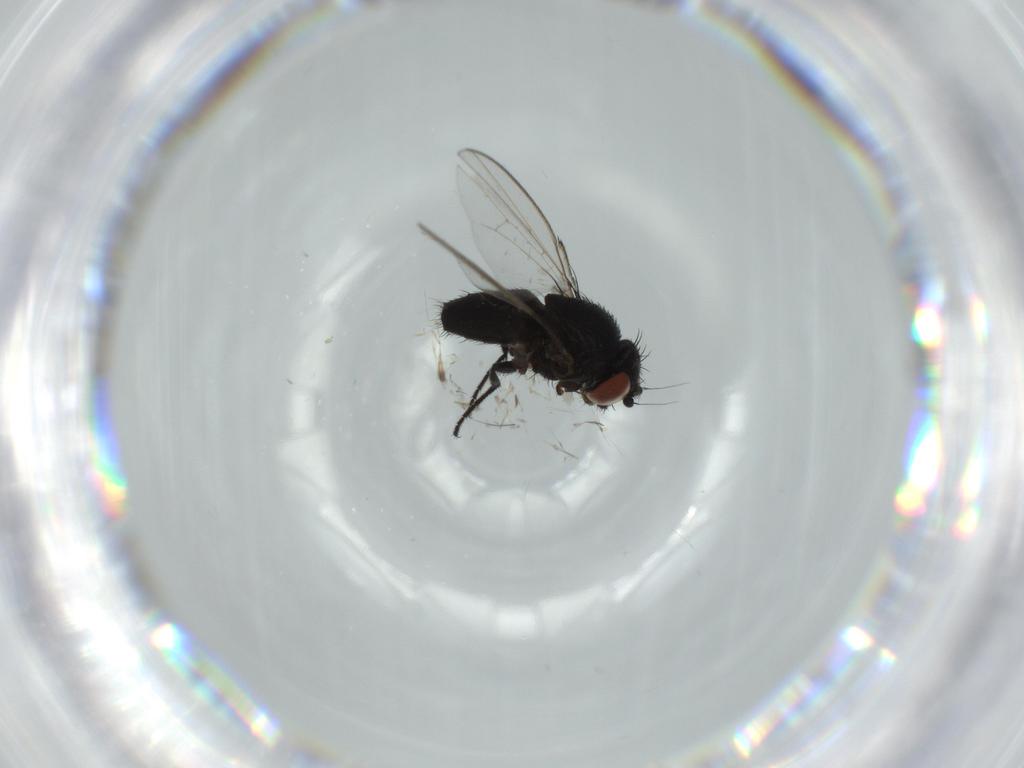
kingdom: Animalia
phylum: Arthropoda
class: Insecta
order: Diptera
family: Milichiidae
